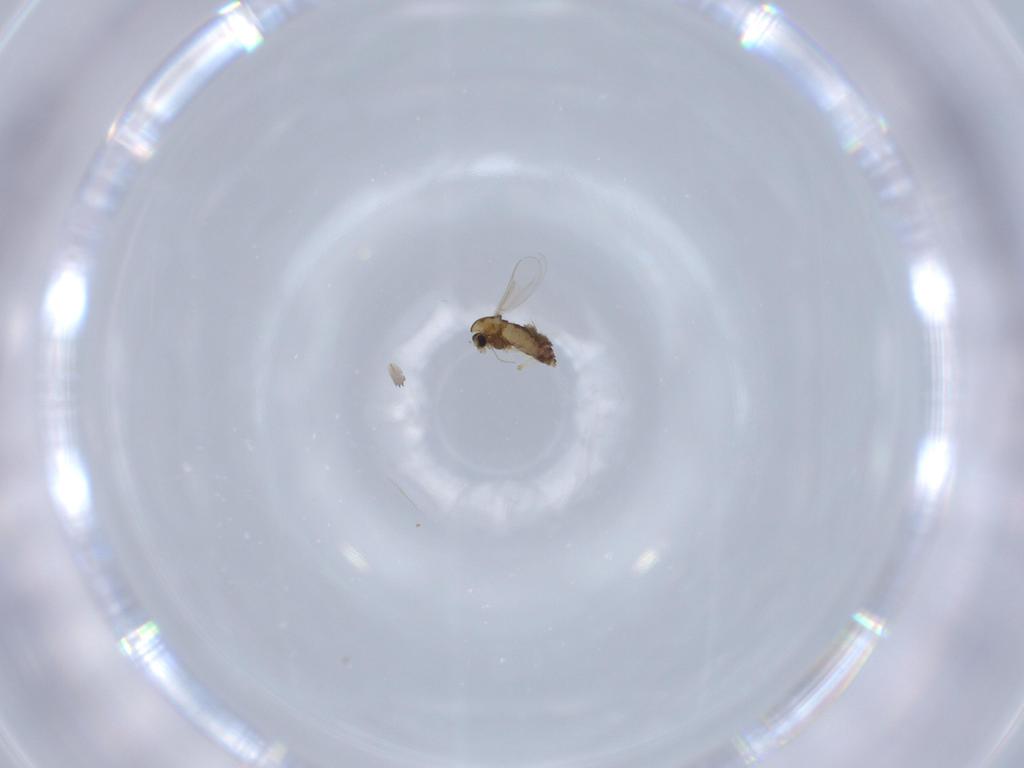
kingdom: Animalia
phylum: Arthropoda
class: Insecta
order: Diptera
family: Chironomidae
